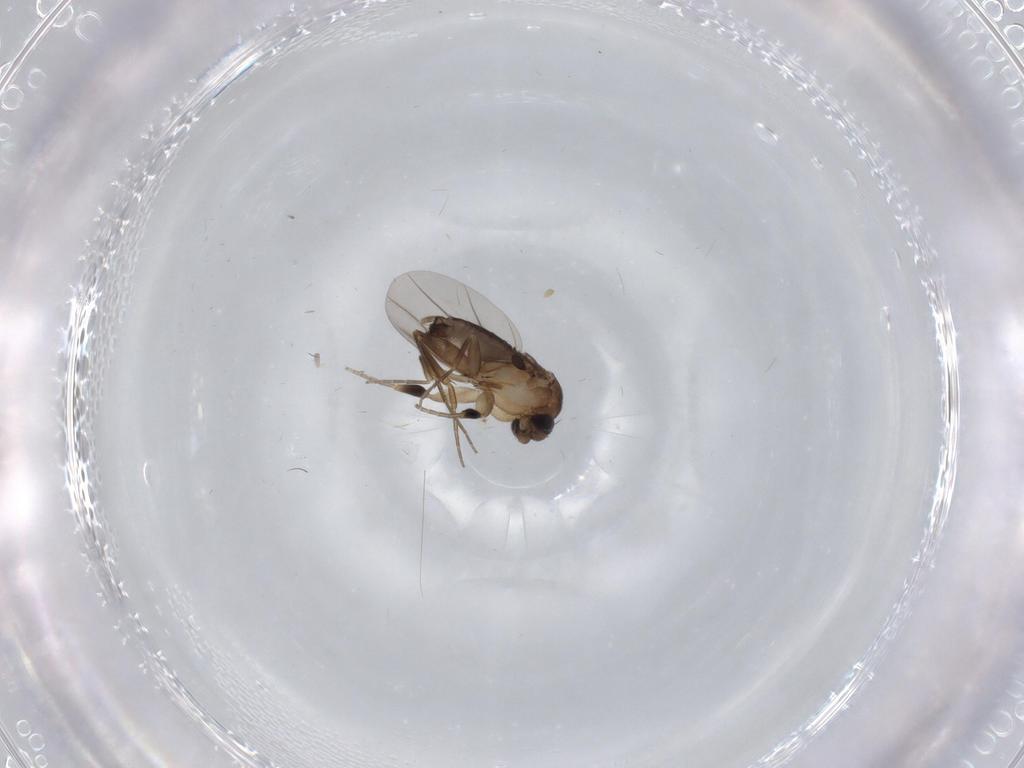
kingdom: Animalia
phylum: Arthropoda
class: Insecta
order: Diptera
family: Phoridae
